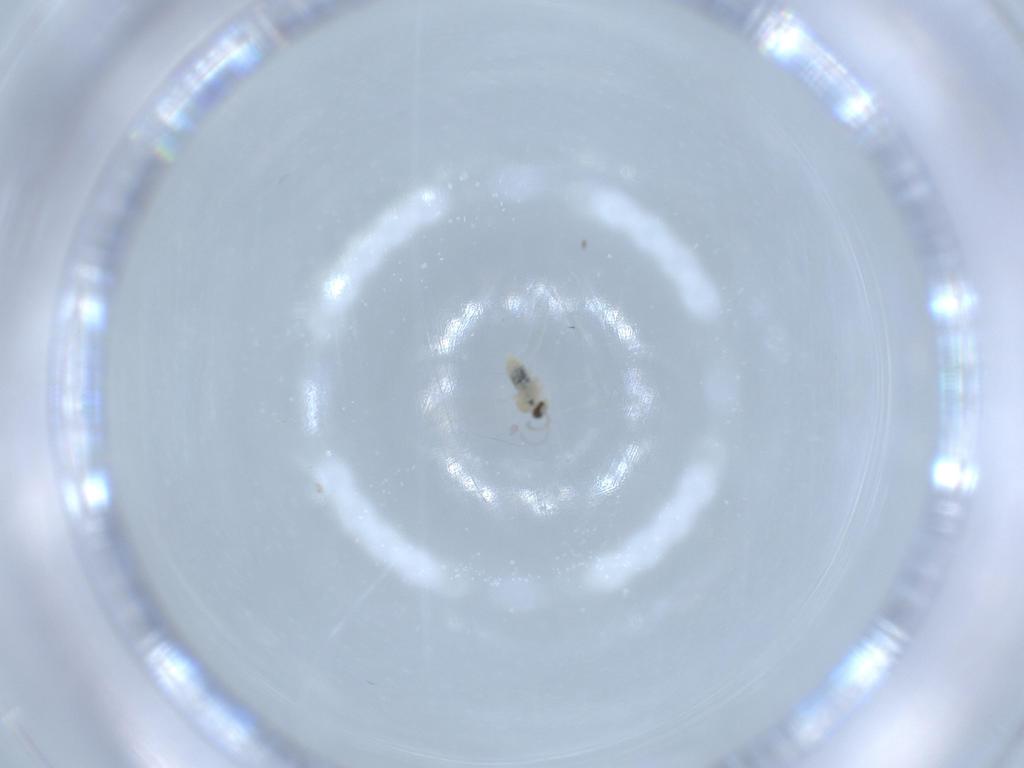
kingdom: Animalia
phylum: Arthropoda
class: Insecta
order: Diptera
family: Cecidomyiidae
